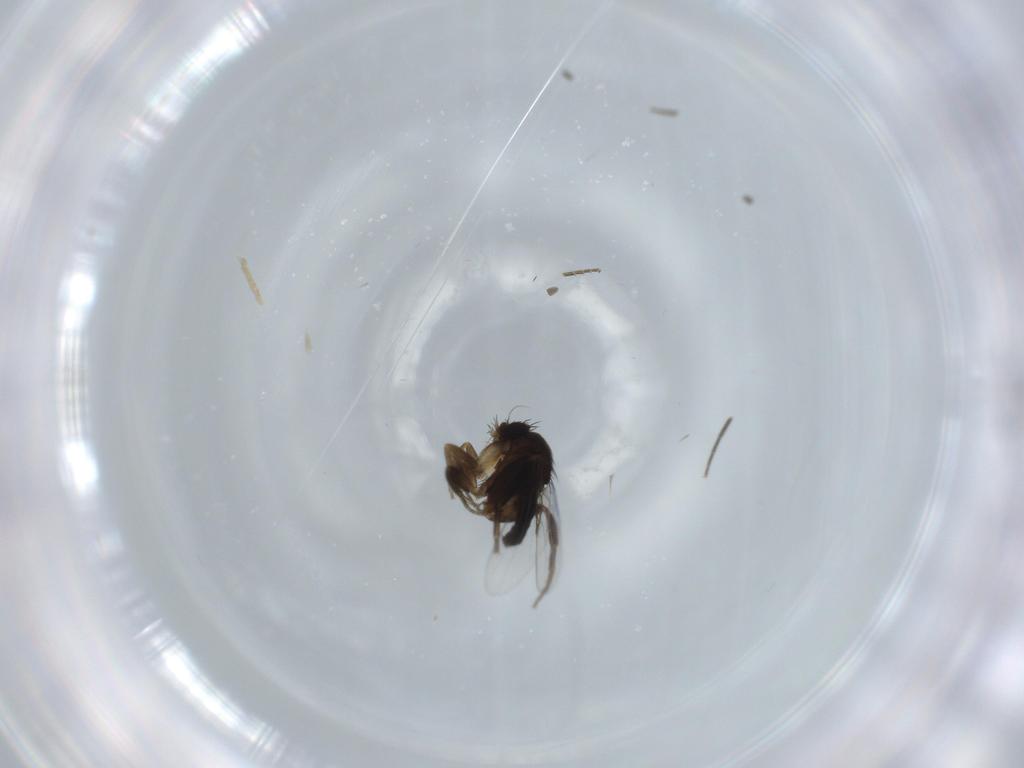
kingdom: Animalia
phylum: Arthropoda
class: Insecta
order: Diptera
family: Phoridae
